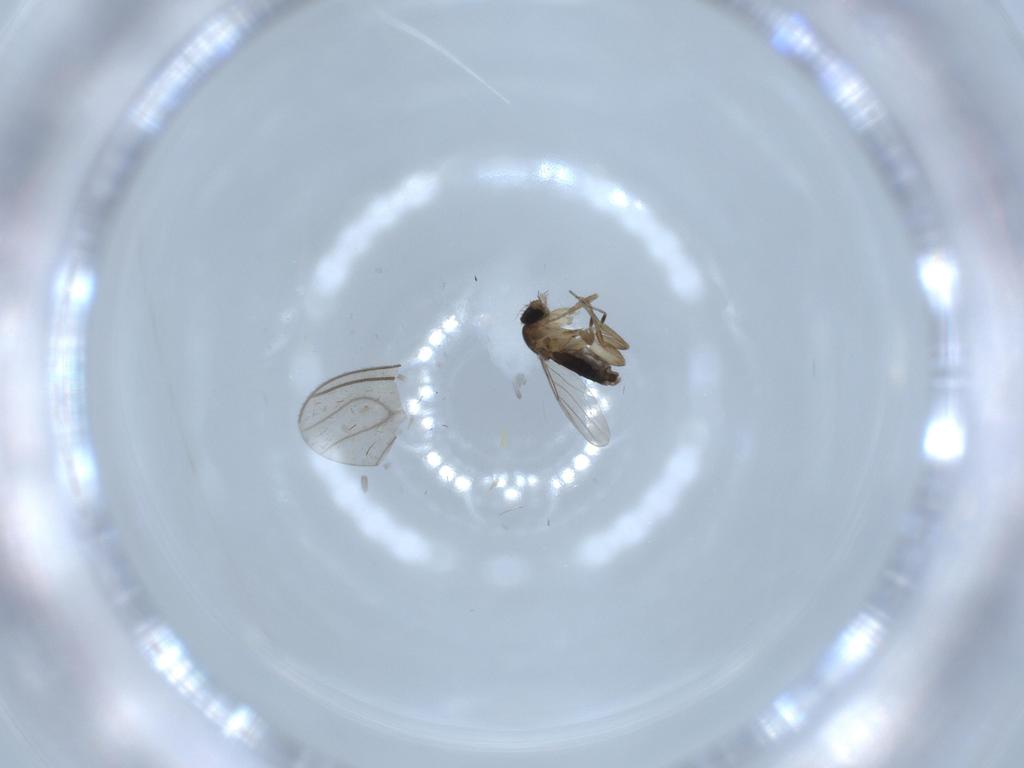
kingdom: Animalia
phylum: Arthropoda
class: Insecta
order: Diptera
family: Phoridae
